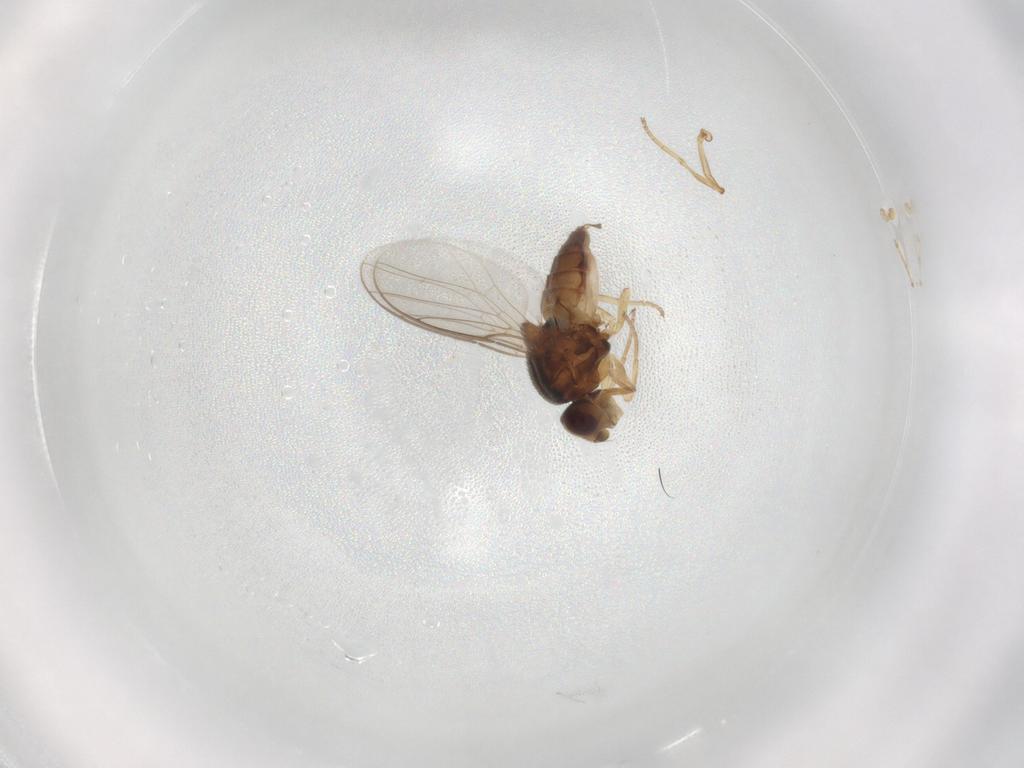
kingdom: Animalia
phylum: Arthropoda
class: Insecta
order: Diptera
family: Chloropidae
